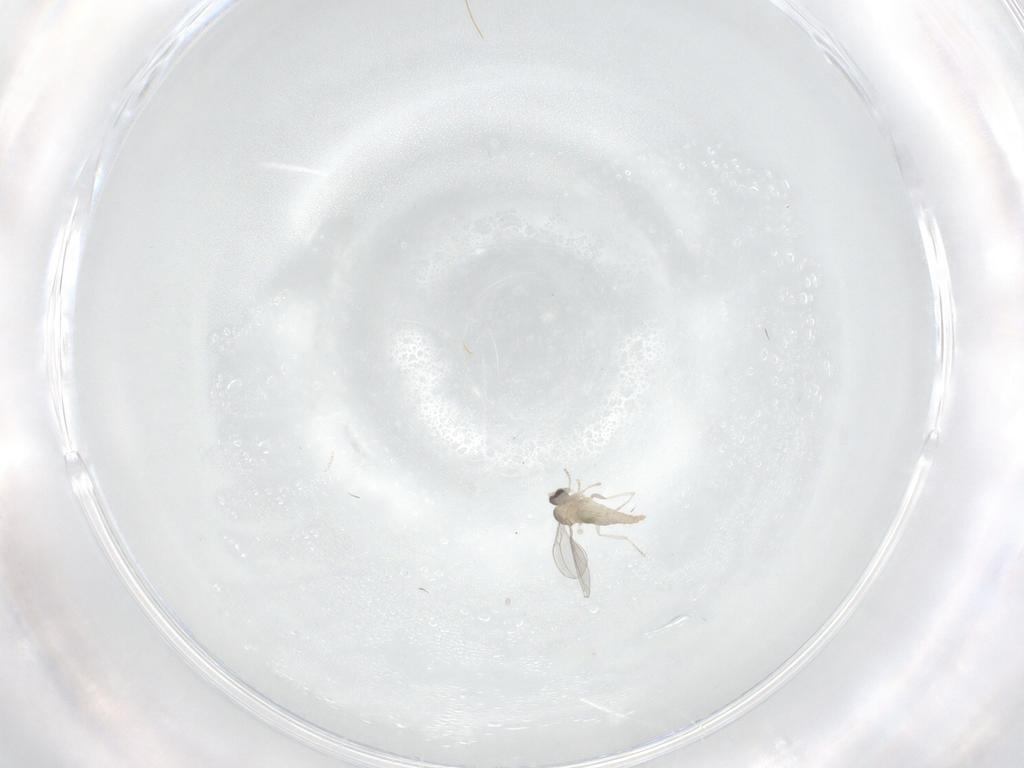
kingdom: Animalia
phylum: Arthropoda
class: Insecta
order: Diptera
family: Cecidomyiidae
